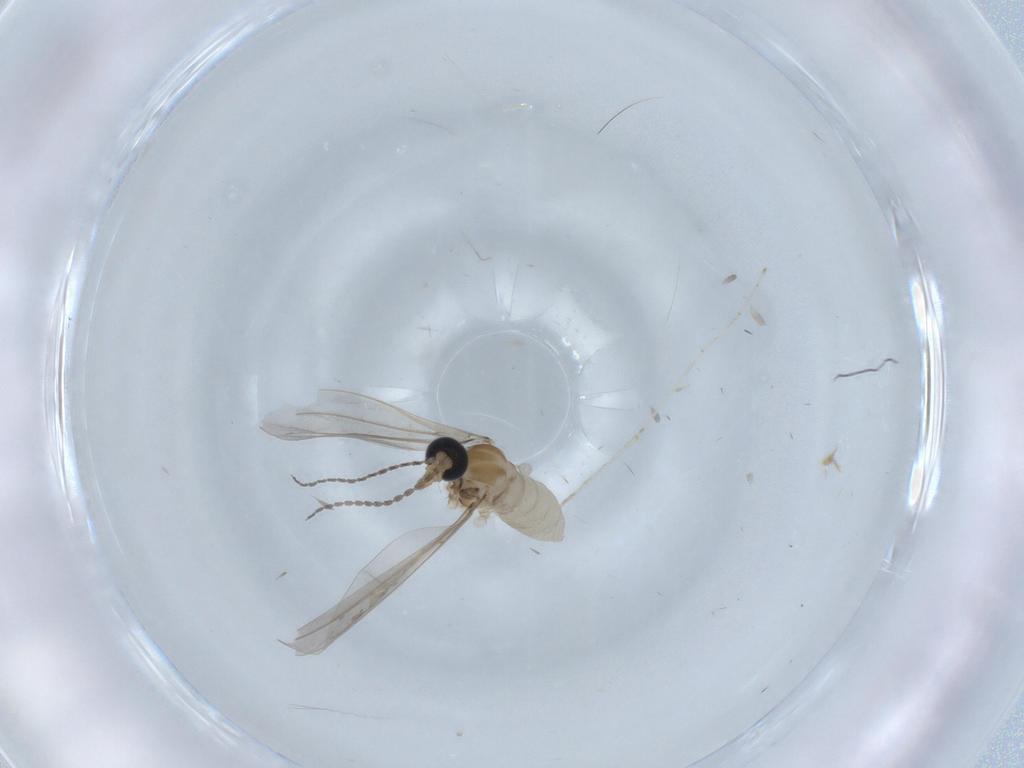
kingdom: Animalia
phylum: Arthropoda
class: Insecta
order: Diptera
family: Cecidomyiidae
